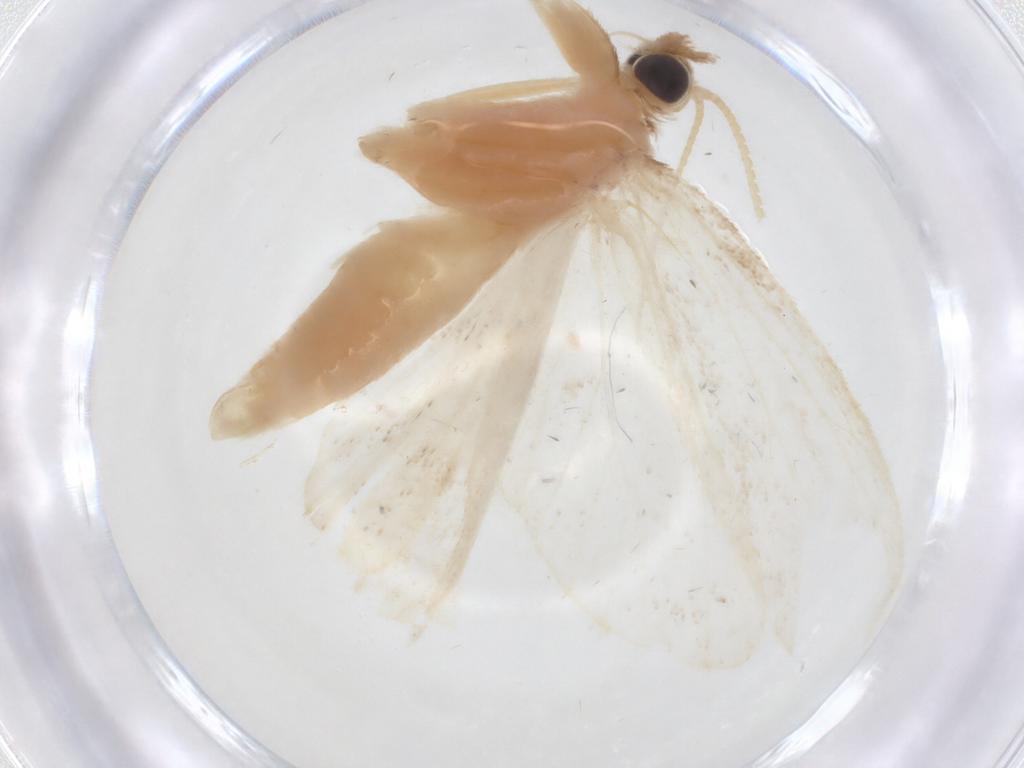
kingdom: Animalia
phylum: Arthropoda
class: Insecta
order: Lepidoptera
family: Crambidae
